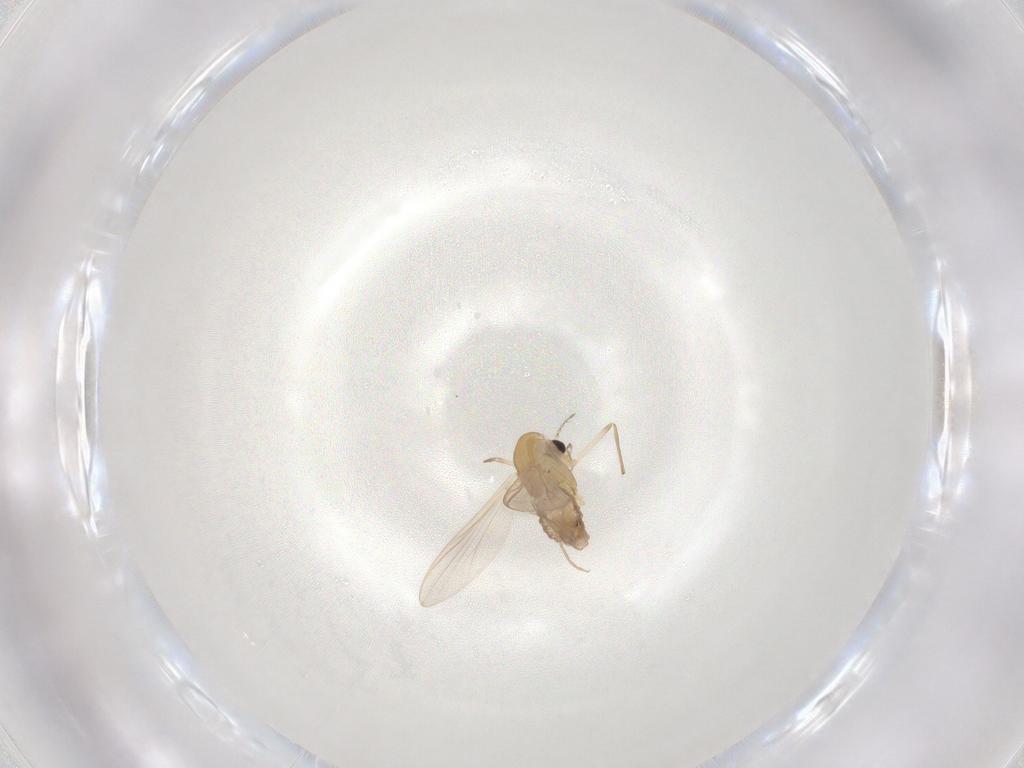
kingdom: Animalia
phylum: Arthropoda
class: Insecta
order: Diptera
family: Chironomidae
